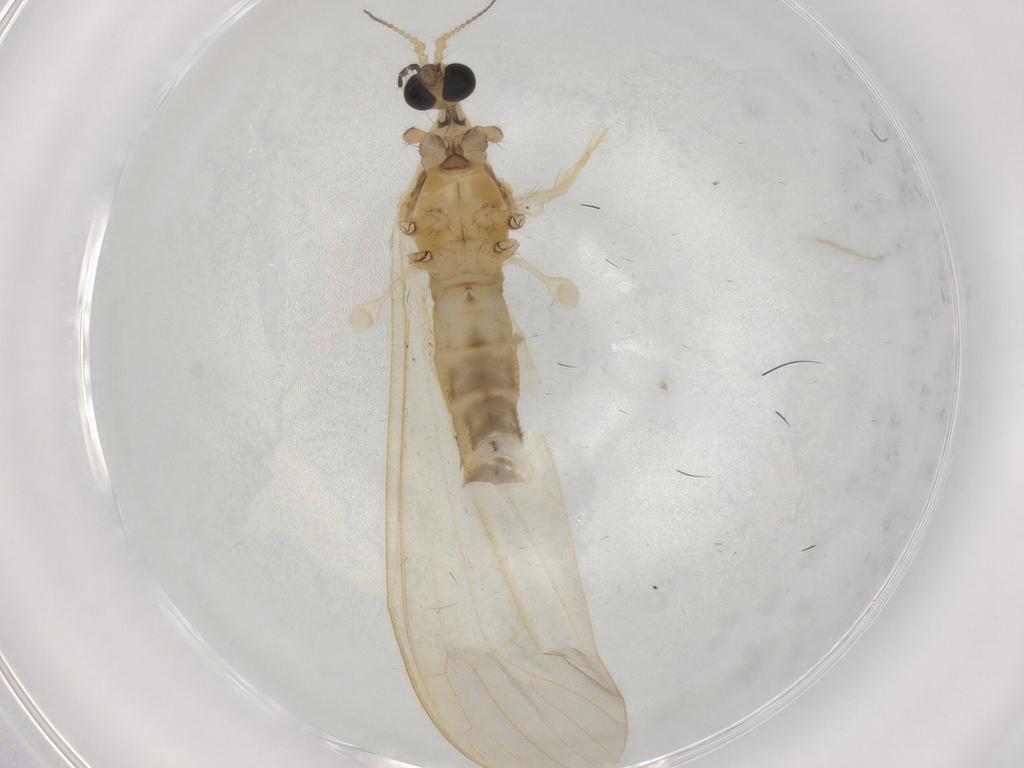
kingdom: Animalia
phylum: Arthropoda
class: Insecta
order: Diptera
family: Limoniidae
